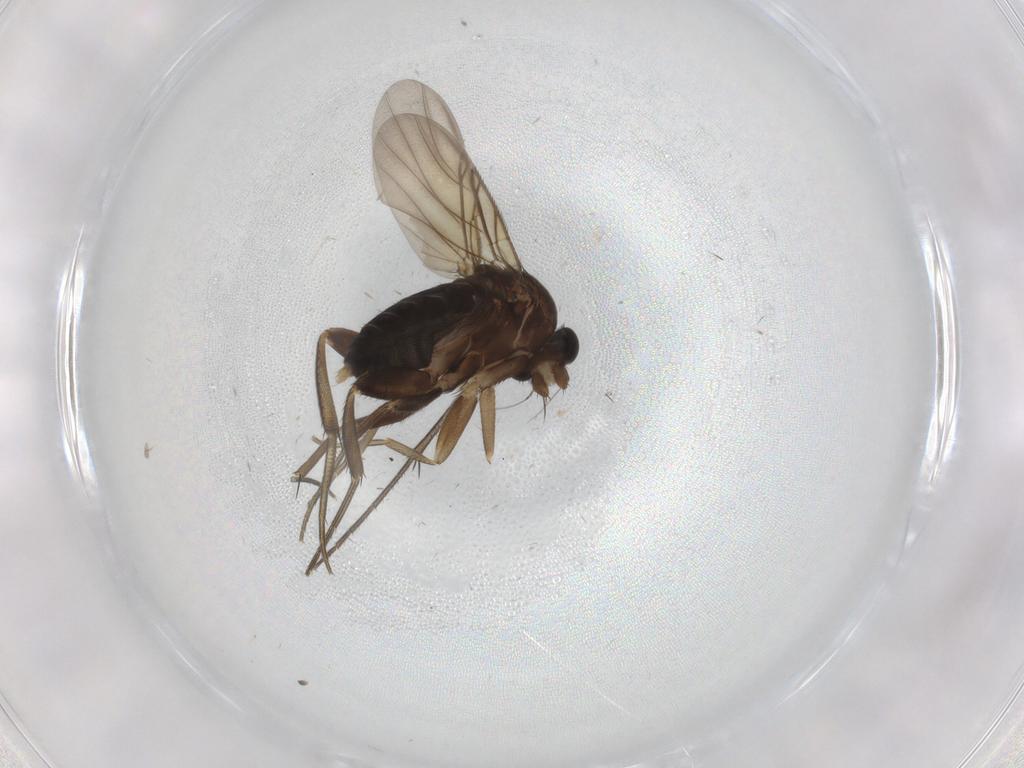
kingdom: Animalia
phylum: Arthropoda
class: Insecta
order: Diptera
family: Phoridae
